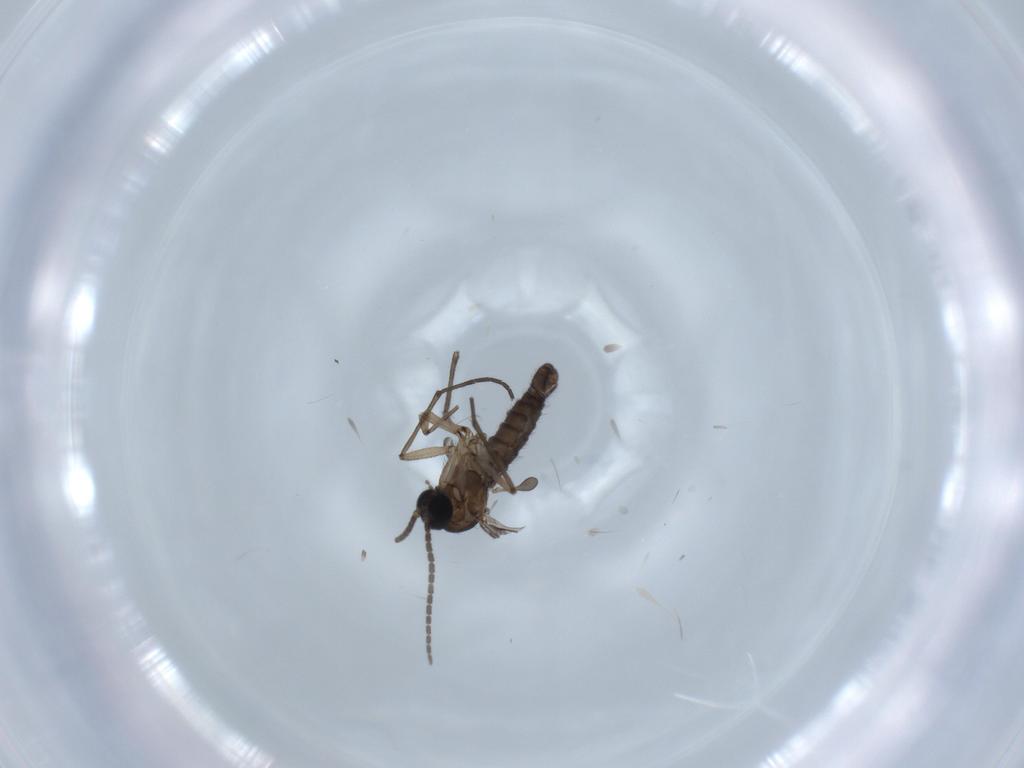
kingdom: Animalia
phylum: Arthropoda
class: Insecta
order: Diptera
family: Sciaridae
